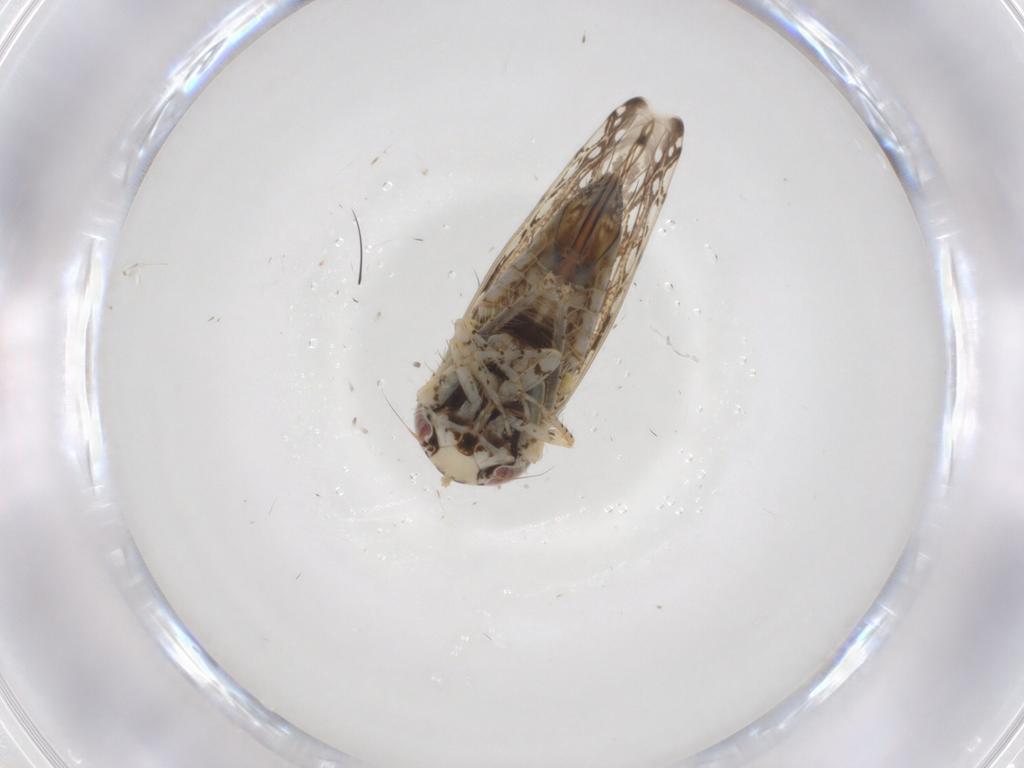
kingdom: Animalia
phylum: Arthropoda
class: Insecta
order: Hemiptera
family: Cicadellidae
